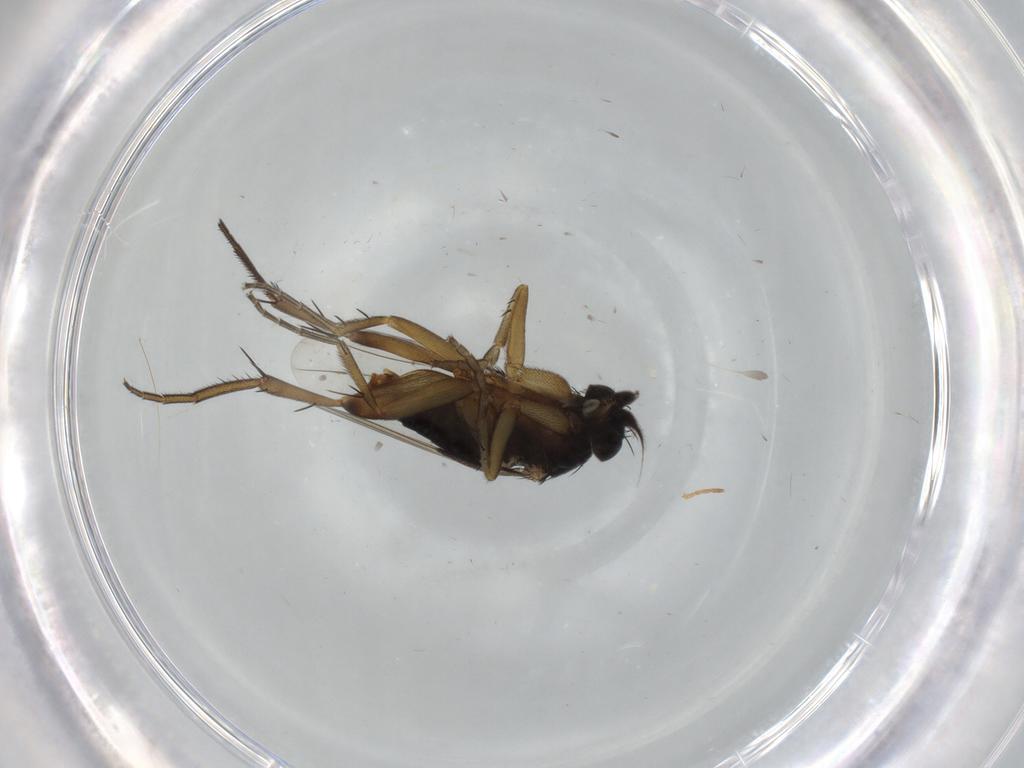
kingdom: Animalia
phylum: Arthropoda
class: Insecta
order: Diptera
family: Phoridae
